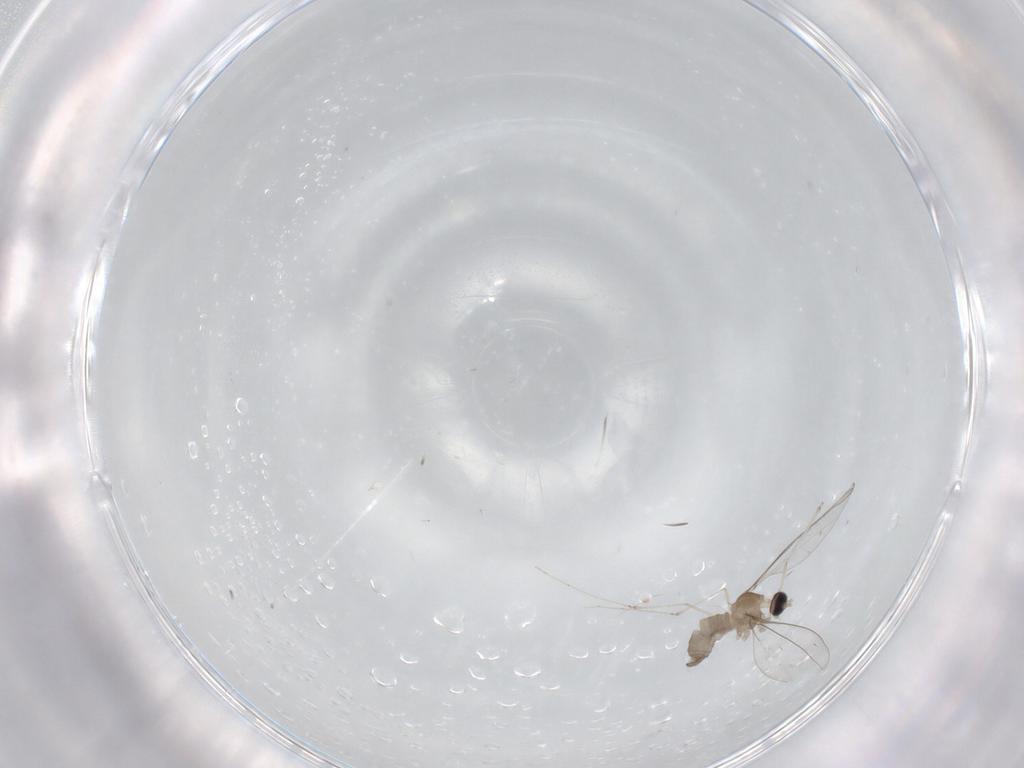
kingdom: Animalia
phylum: Arthropoda
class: Insecta
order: Diptera
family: Cecidomyiidae
